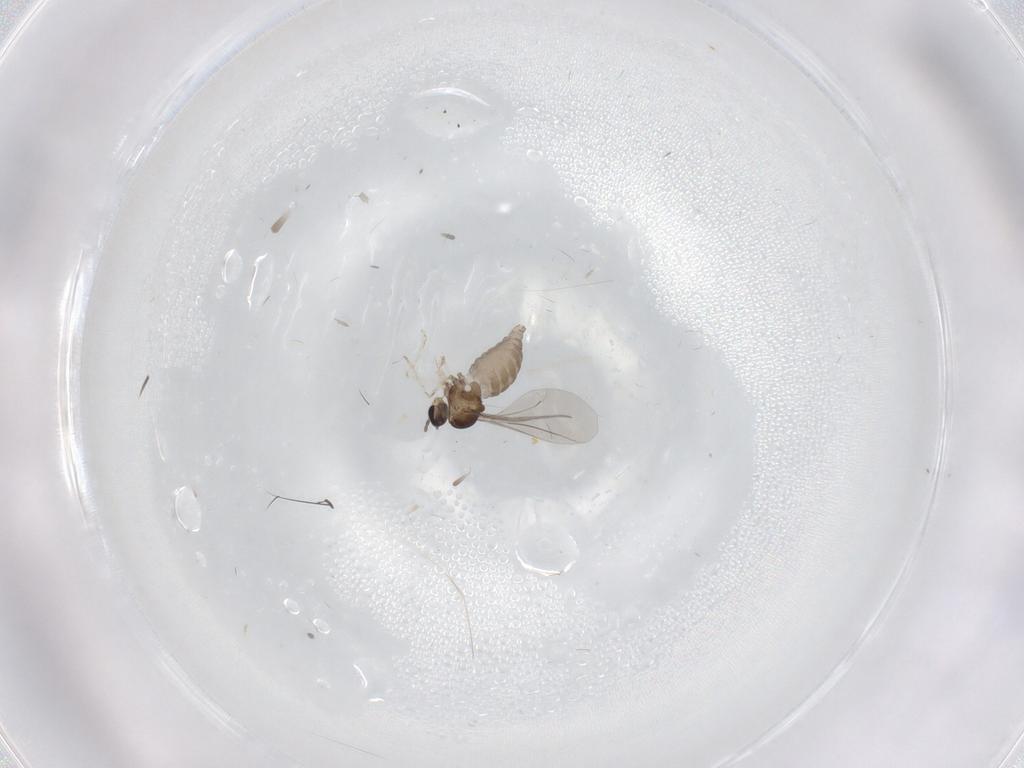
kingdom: Animalia
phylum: Arthropoda
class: Insecta
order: Diptera
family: Cecidomyiidae
